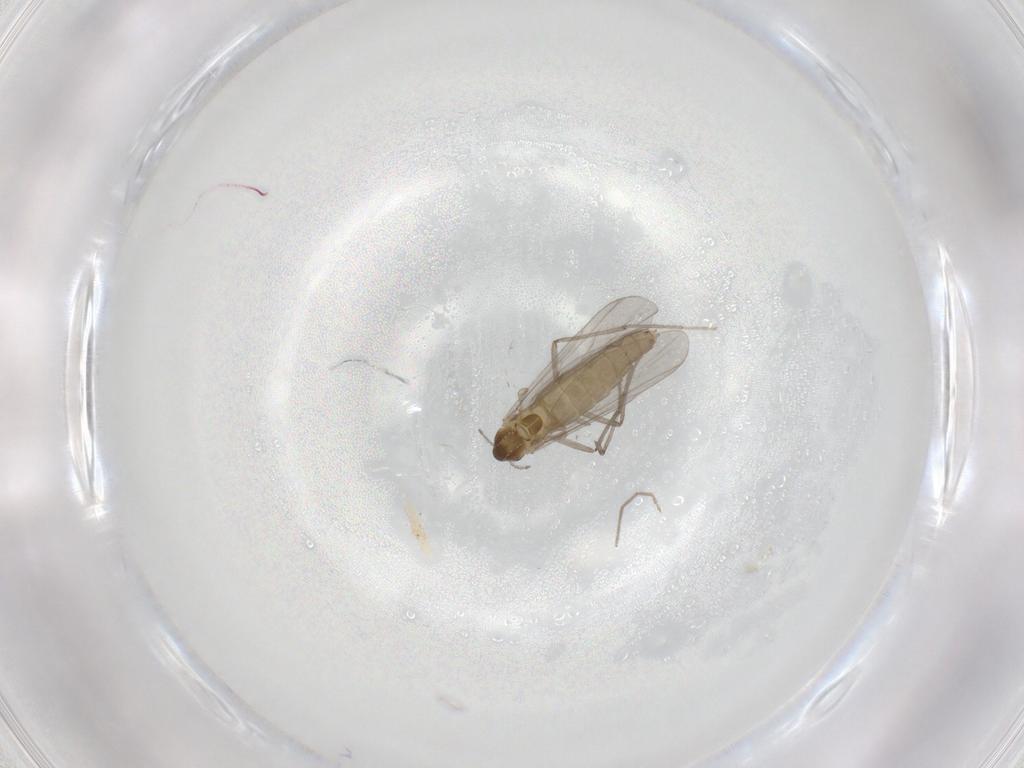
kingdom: Animalia
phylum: Arthropoda
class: Insecta
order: Diptera
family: Chironomidae
